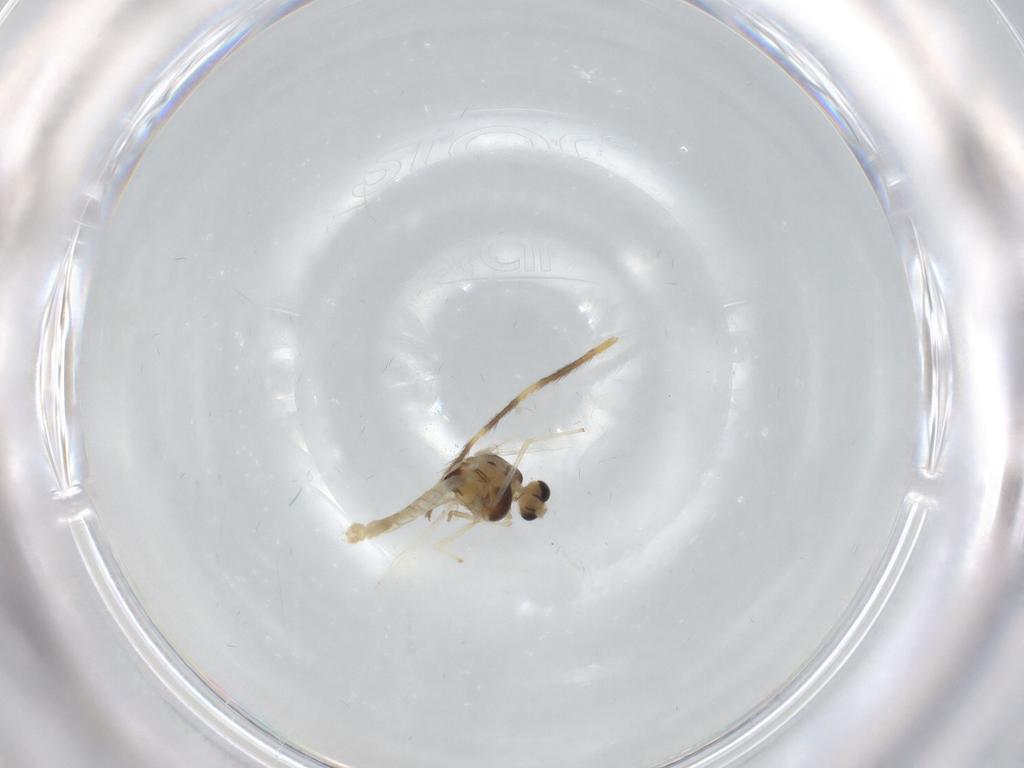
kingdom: Animalia
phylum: Arthropoda
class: Insecta
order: Diptera
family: Chironomidae
